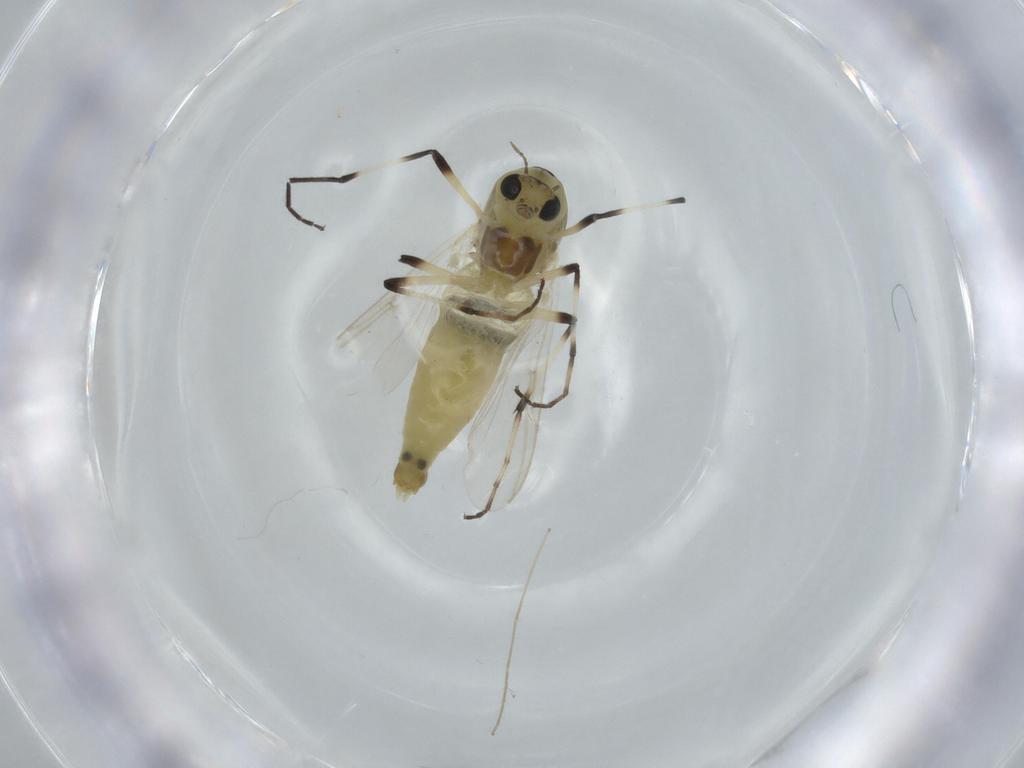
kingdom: Animalia
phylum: Arthropoda
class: Insecta
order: Diptera
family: Chironomidae
